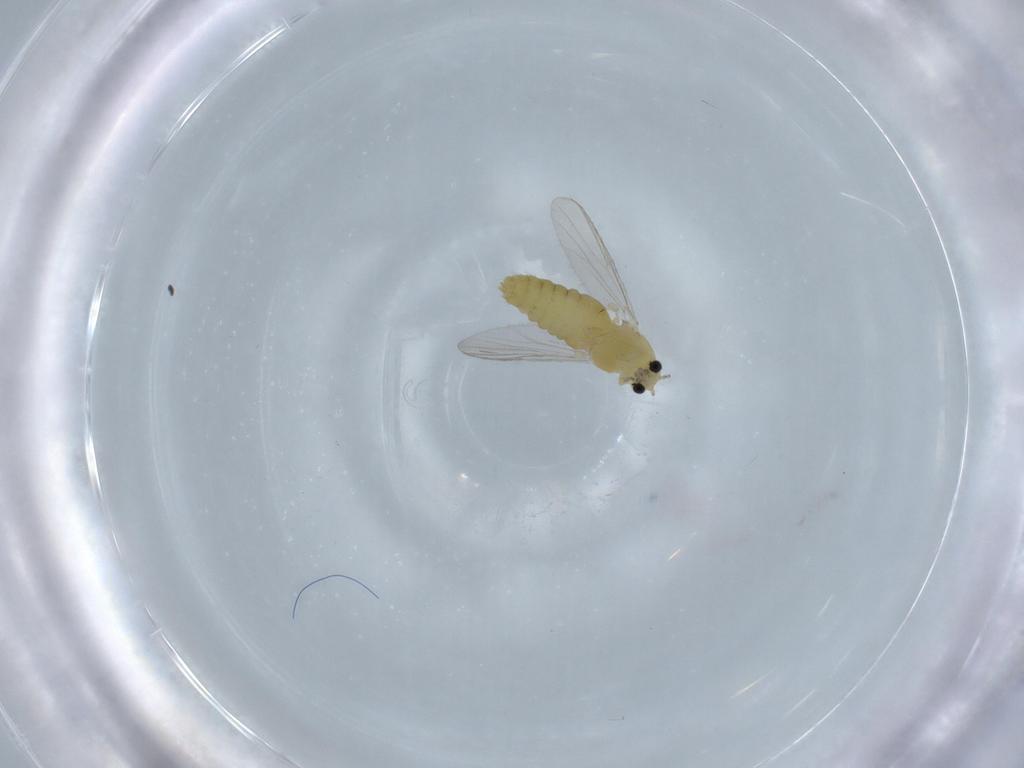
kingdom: Animalia
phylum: Arthropoda
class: Insecta
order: Diptera
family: Chironomidae
